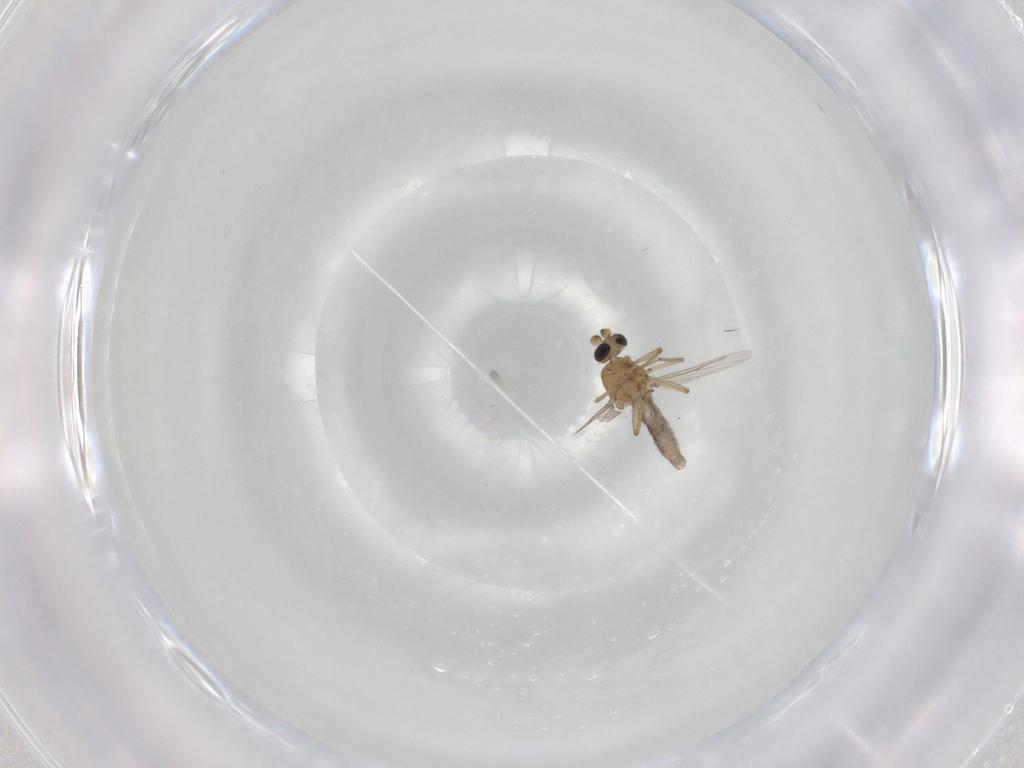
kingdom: Animalia
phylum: Arthropoda
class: Insecta
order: Diptera
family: Ceratopogonidae
